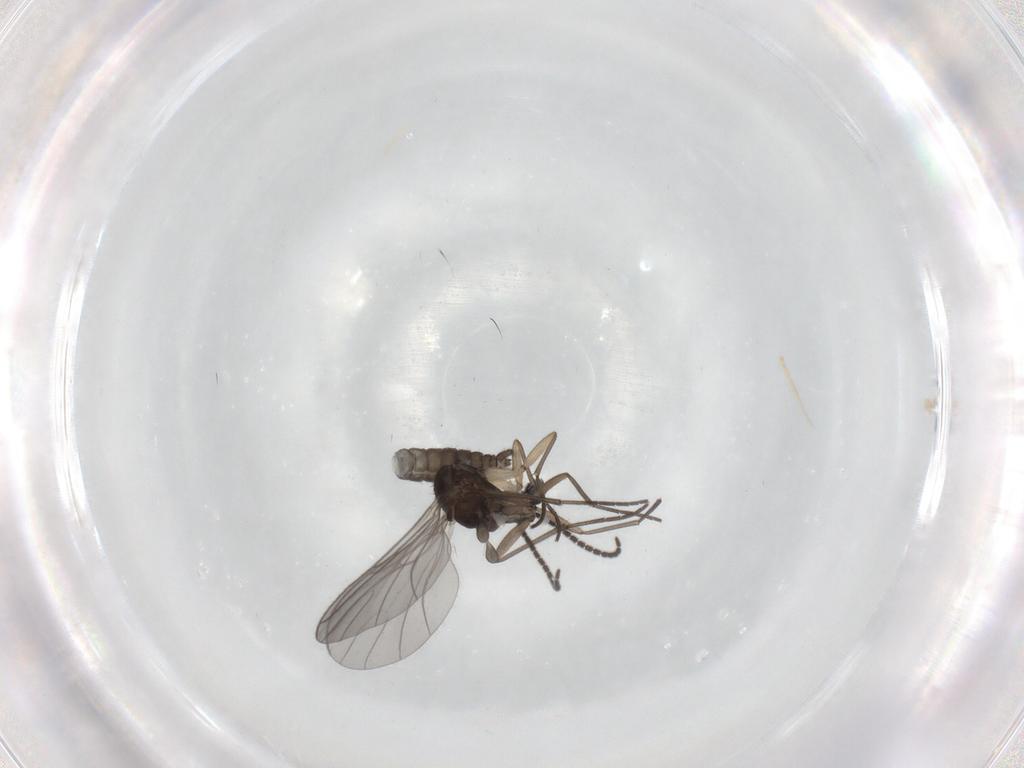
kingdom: Animalia
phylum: Arthropoda
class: Insecta
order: Diptera
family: Sciaridae
